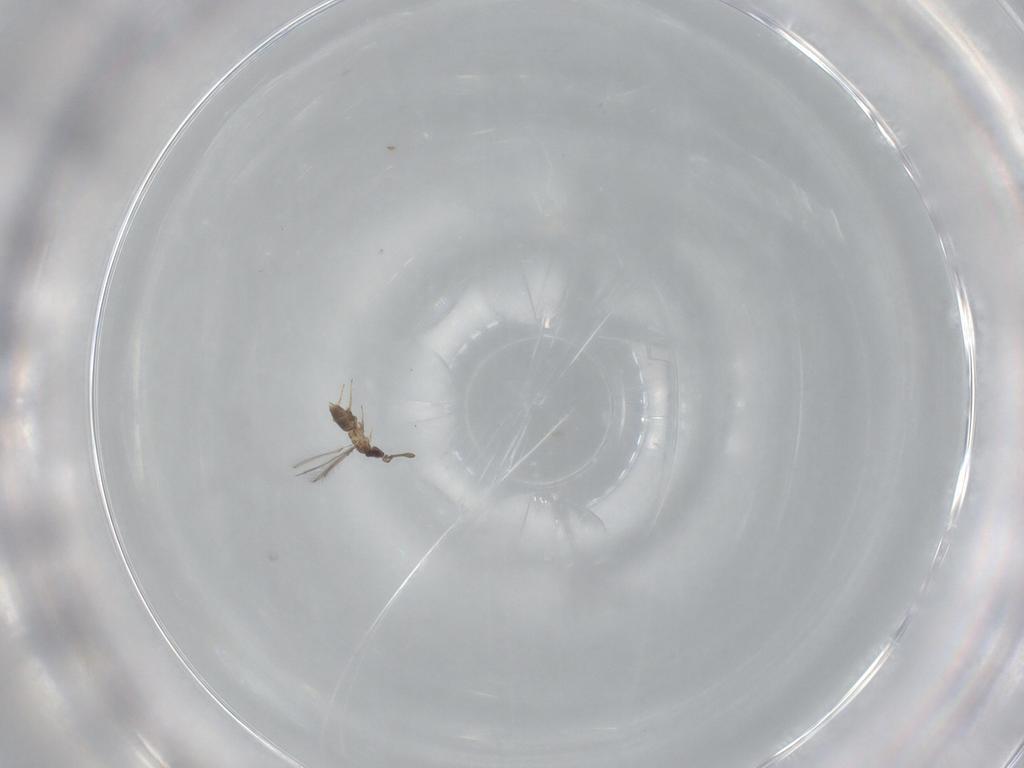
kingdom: Animalia
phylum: Arthropoda
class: Insecta
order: Hymenoptera
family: Mymaridae
